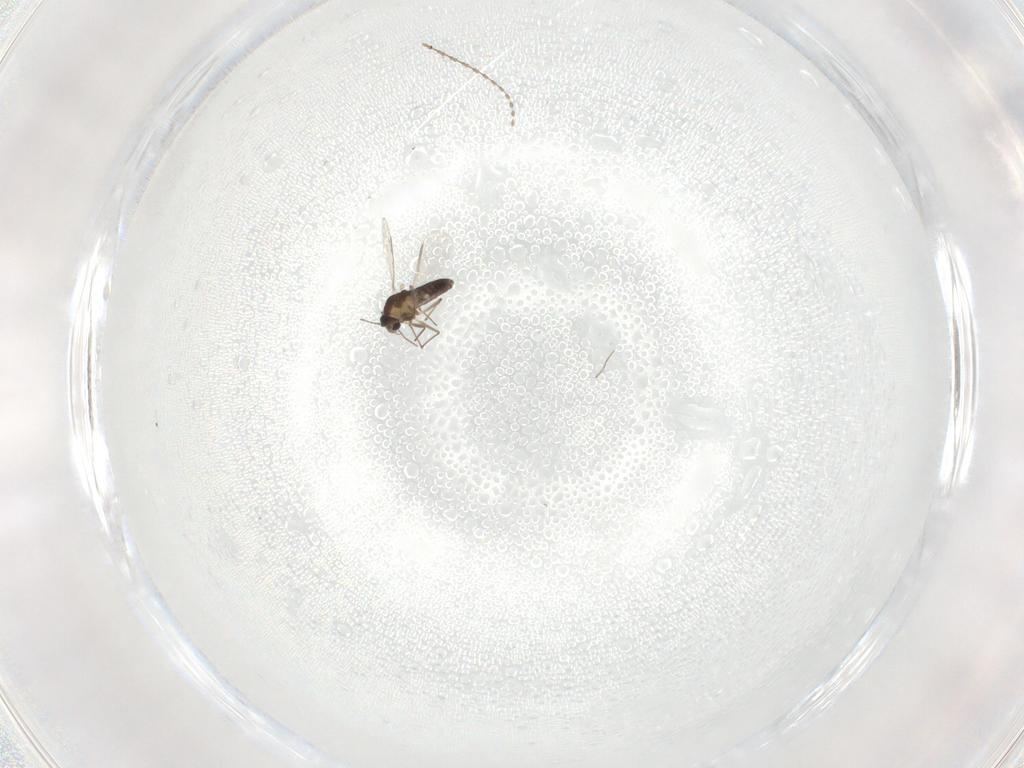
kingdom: Animalia
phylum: Arthropoda
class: Insecta
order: Diptera
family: Chironomidae
